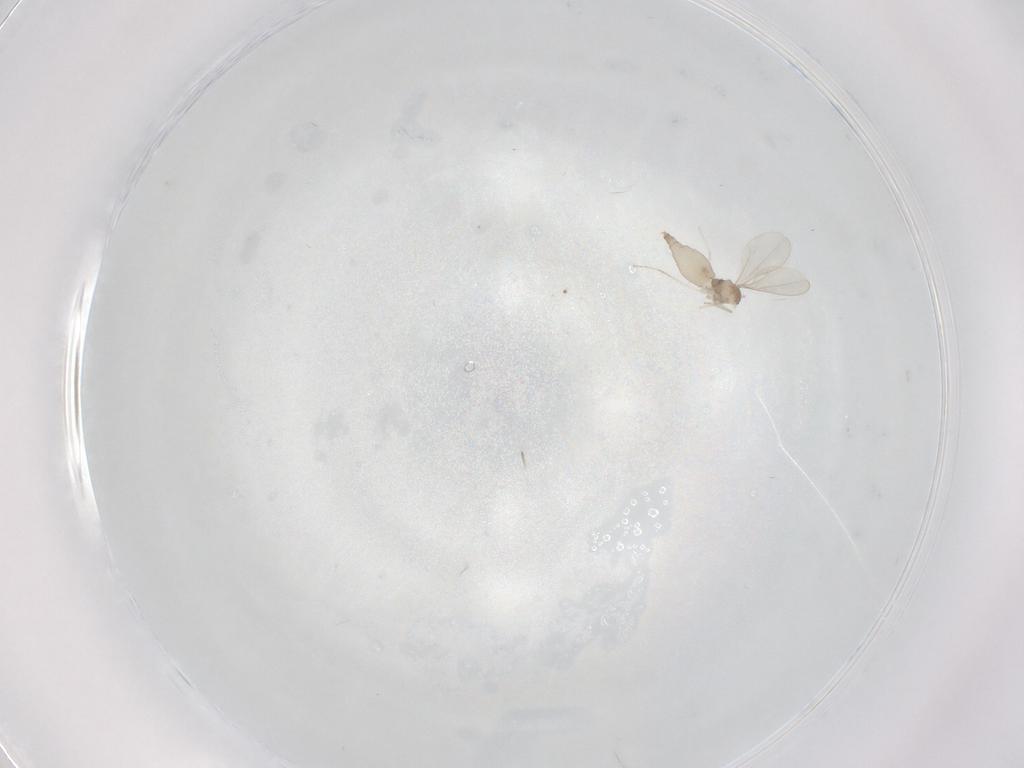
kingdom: Animalia
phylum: Arthropoda
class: Insecta
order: Diptera
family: Cecidomyiidae
